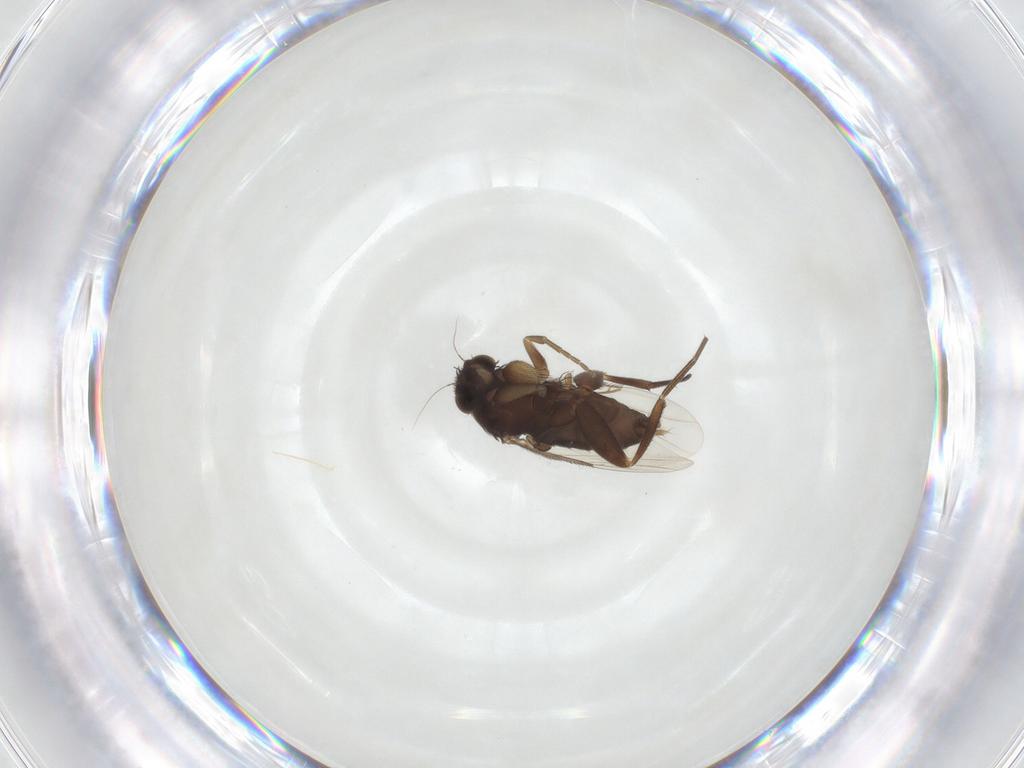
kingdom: Animalia
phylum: Arthropoda
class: Insecta
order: Diptera
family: Phoridae
